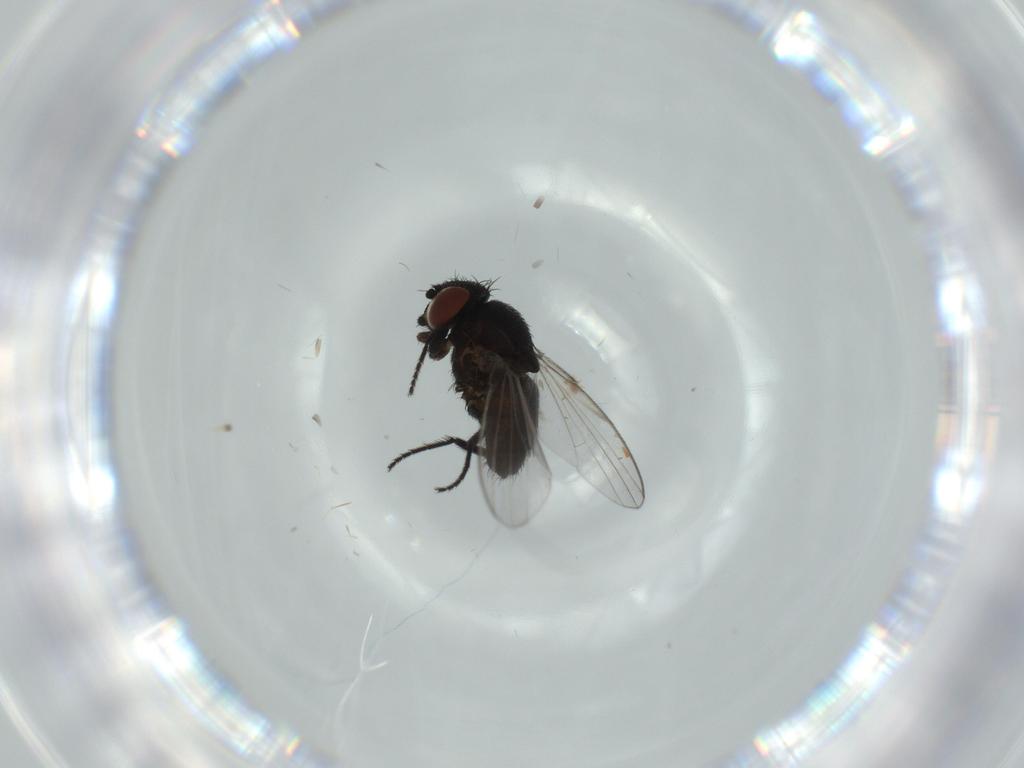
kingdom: Animalia
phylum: Arthropoda
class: Insecta
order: Diptera
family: Milichiidae
